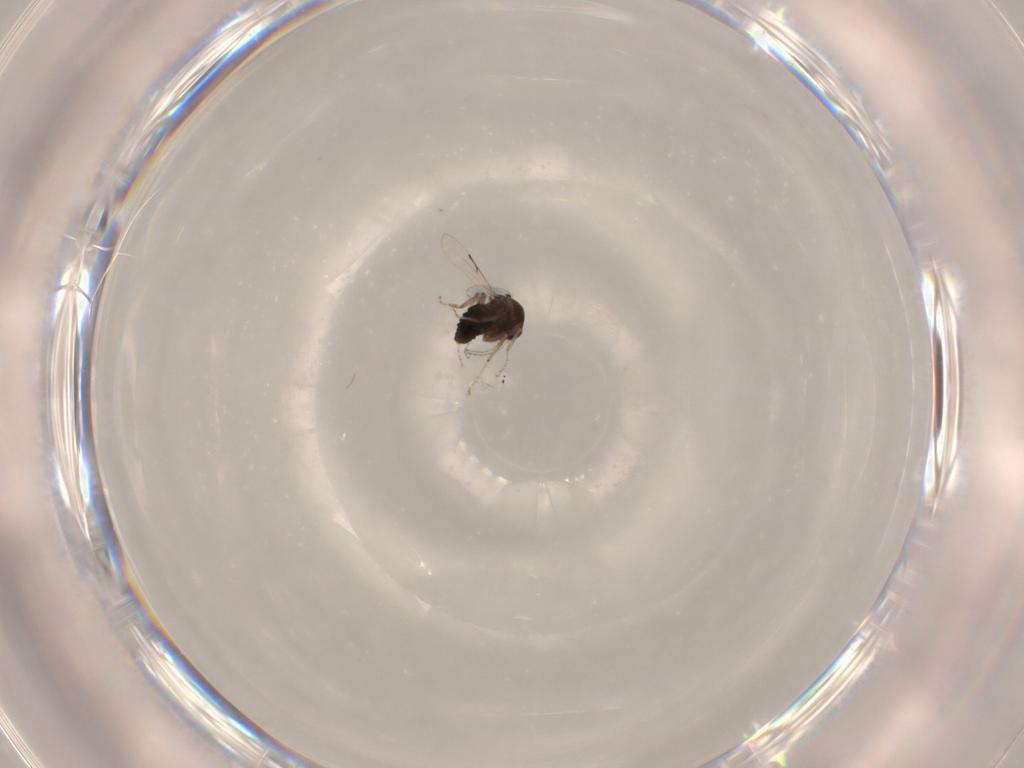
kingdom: Animalia
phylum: Arthropoda
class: Insecta
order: Diptera
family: Ceratopogonidae
